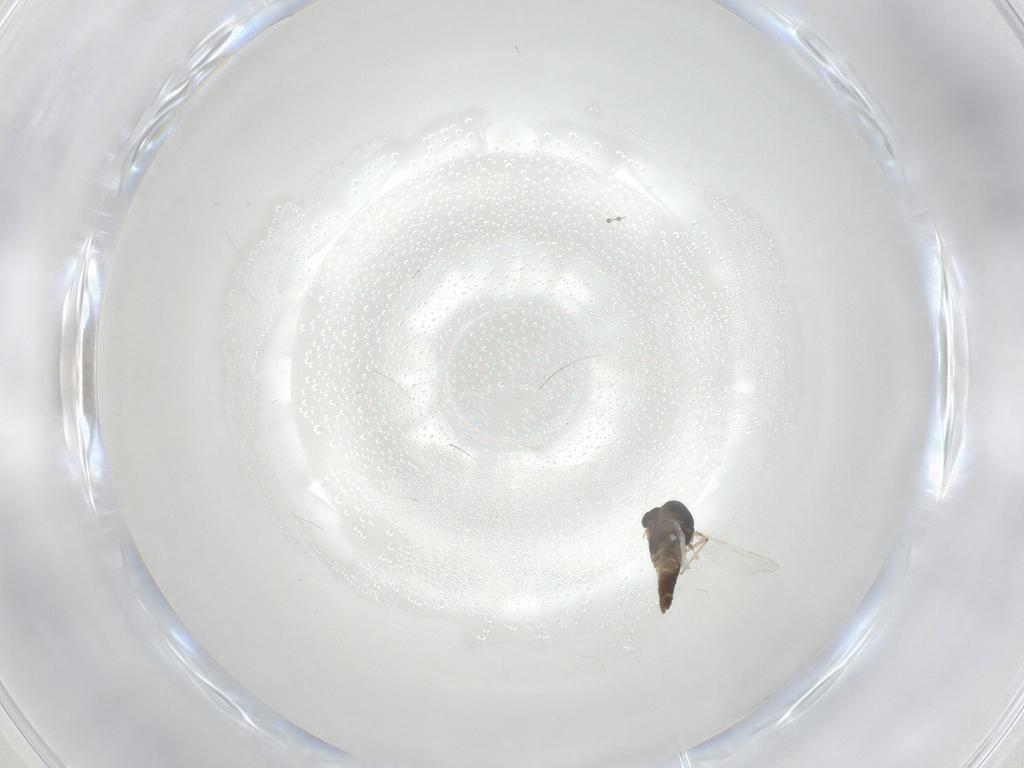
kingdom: Animalia
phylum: Arthropoda
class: Insecta
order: Diptera
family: Chironomidae
